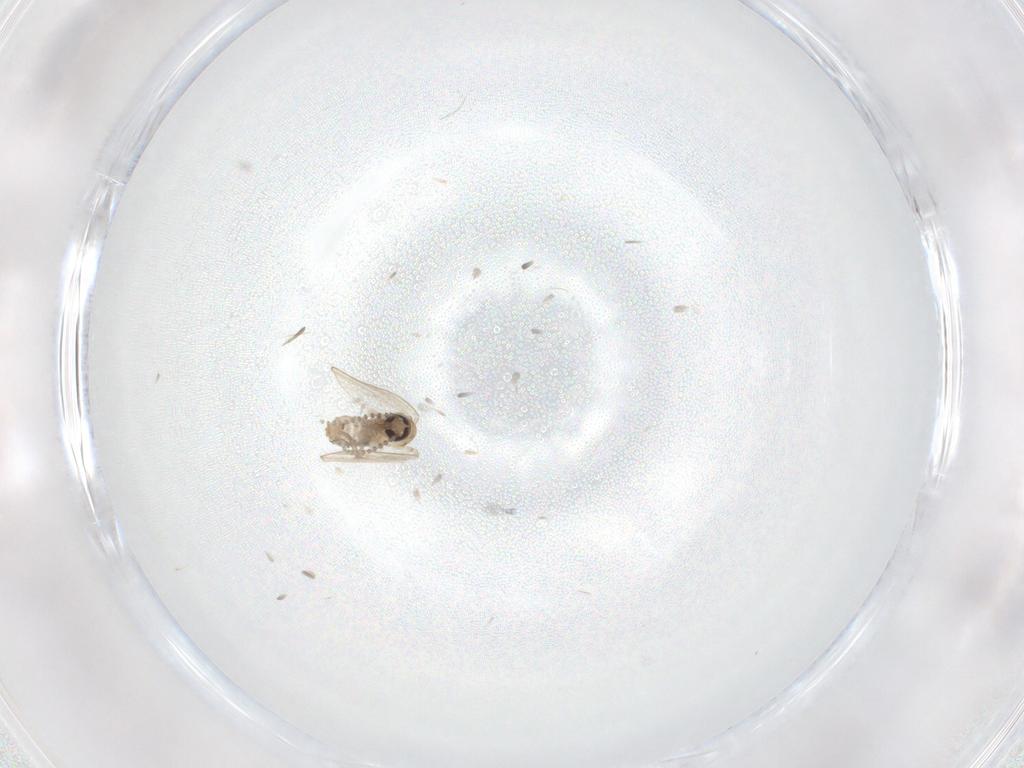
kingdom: Animalia
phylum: Arthropoda
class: Insecta
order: Diptera
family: Psychodidae
